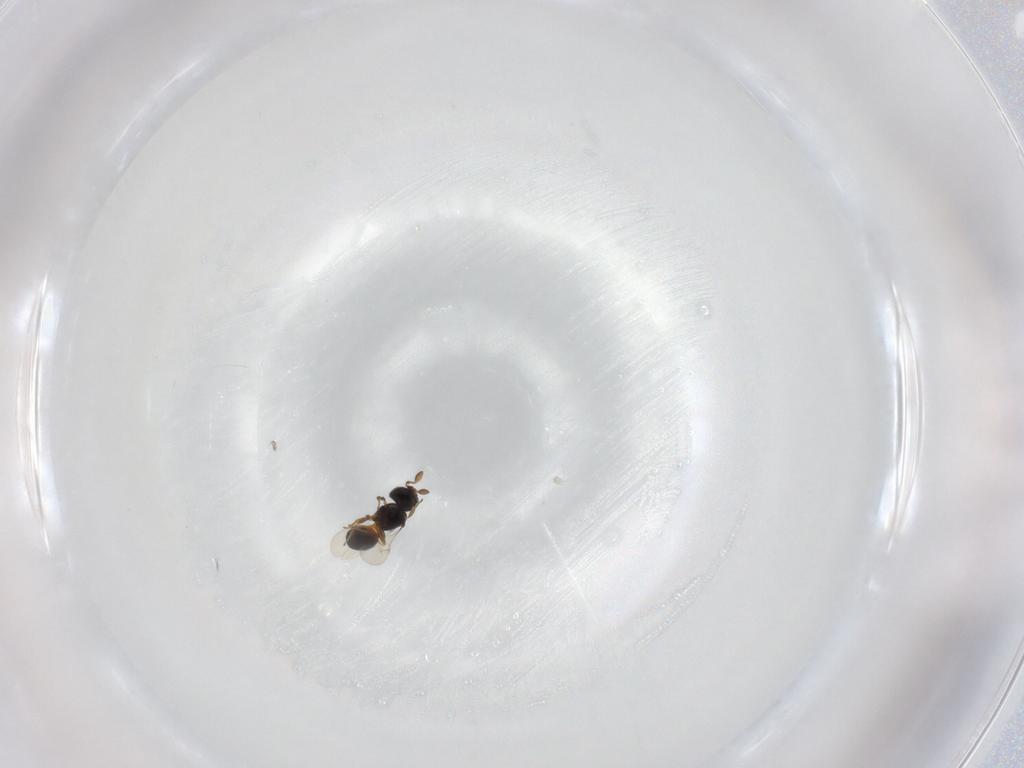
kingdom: Animalia
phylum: Arthropoda
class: Insecta
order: Hymenoptera
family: Scelionidae
